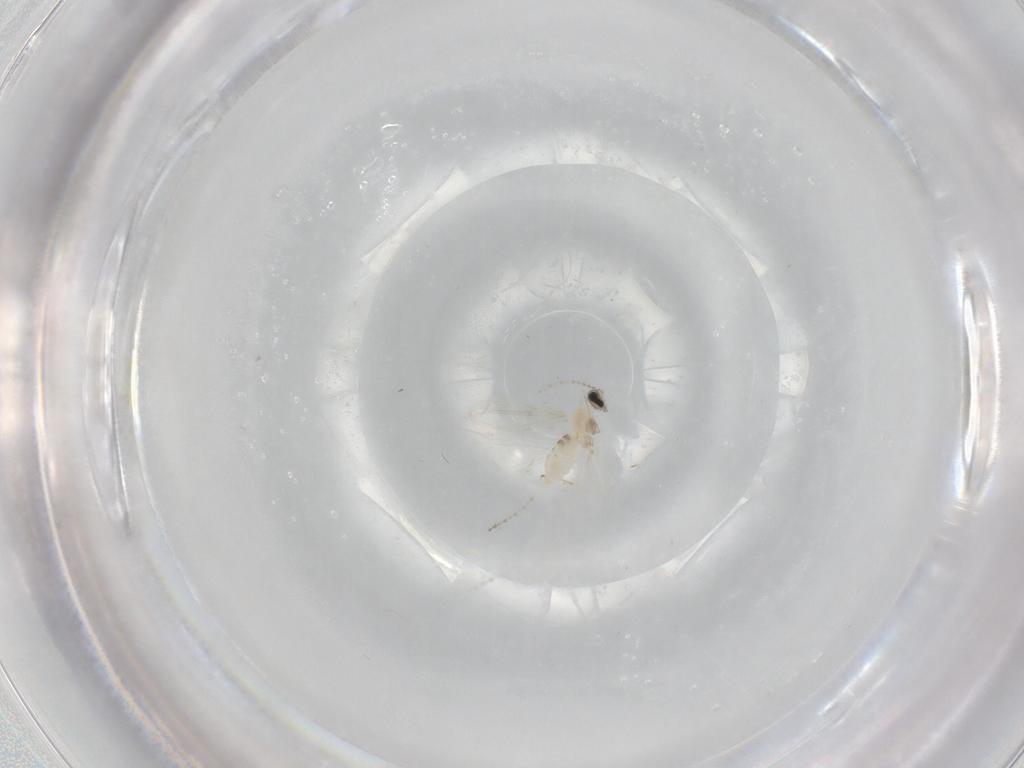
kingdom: Animalia
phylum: Arthropoda
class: Insecta
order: Diptera
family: Cecidomyiidae
